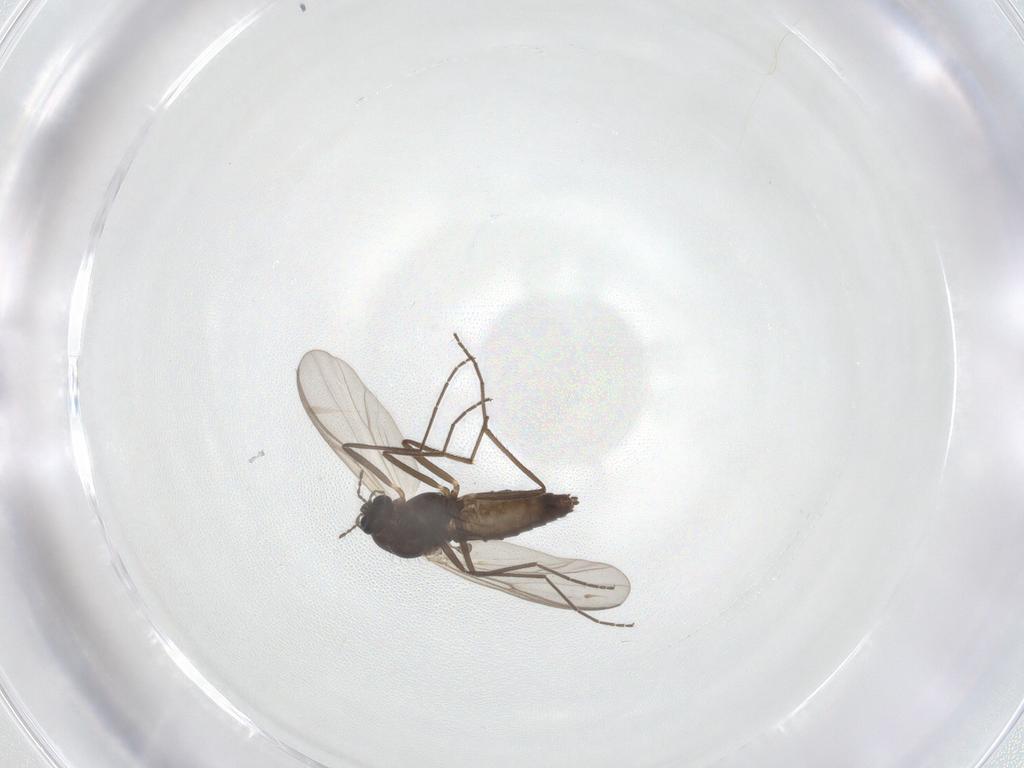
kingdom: Animalia
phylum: Arthropoda
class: Insecta
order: Diptera
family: Chironomidae
